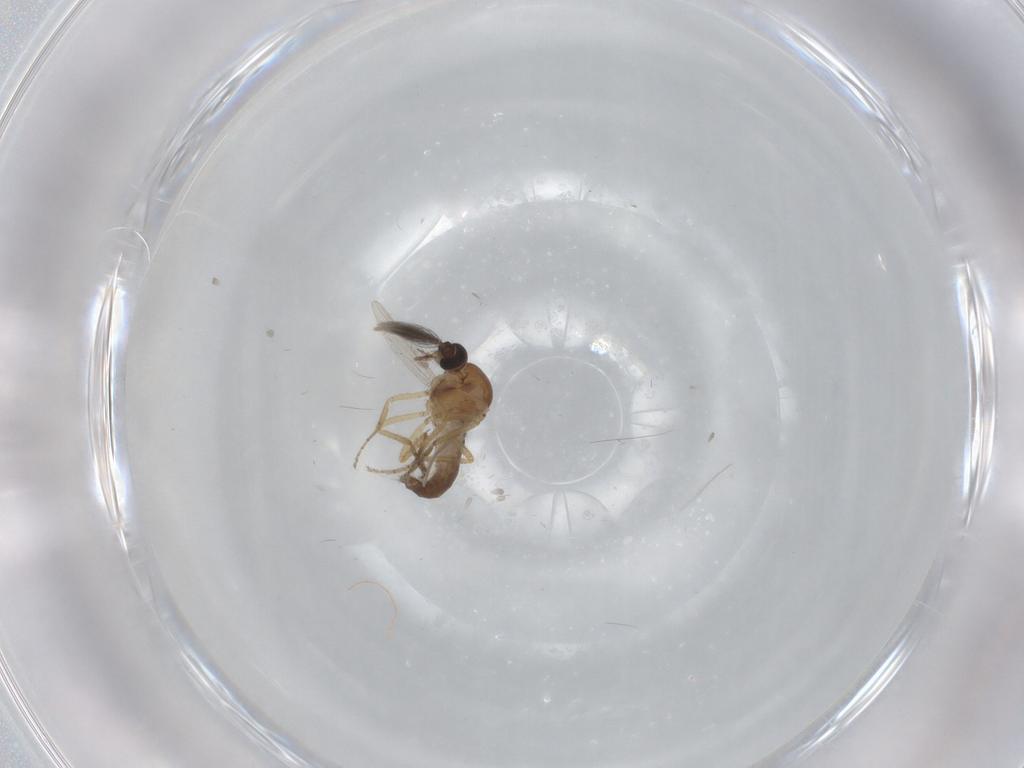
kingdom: Animalia
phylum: Arthropoda
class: Insecta
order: Diptera
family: Ceratopogonidae
